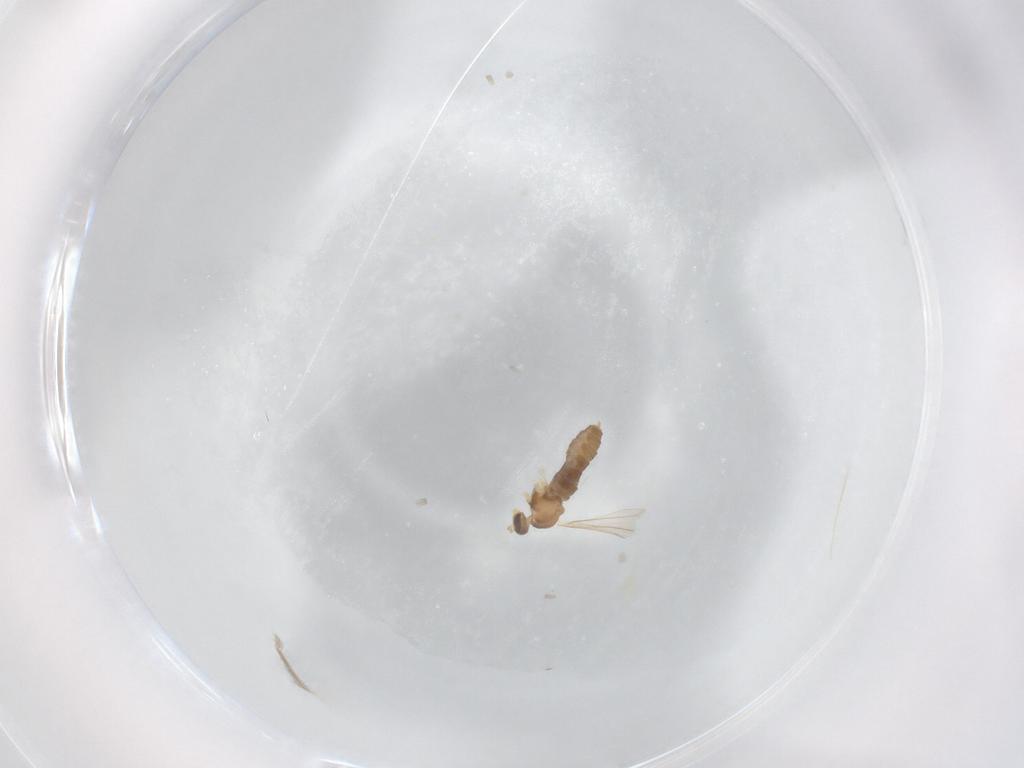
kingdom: Animalia
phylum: Arthropoda
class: Insecta
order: Diptera
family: Cecidomyiidae
